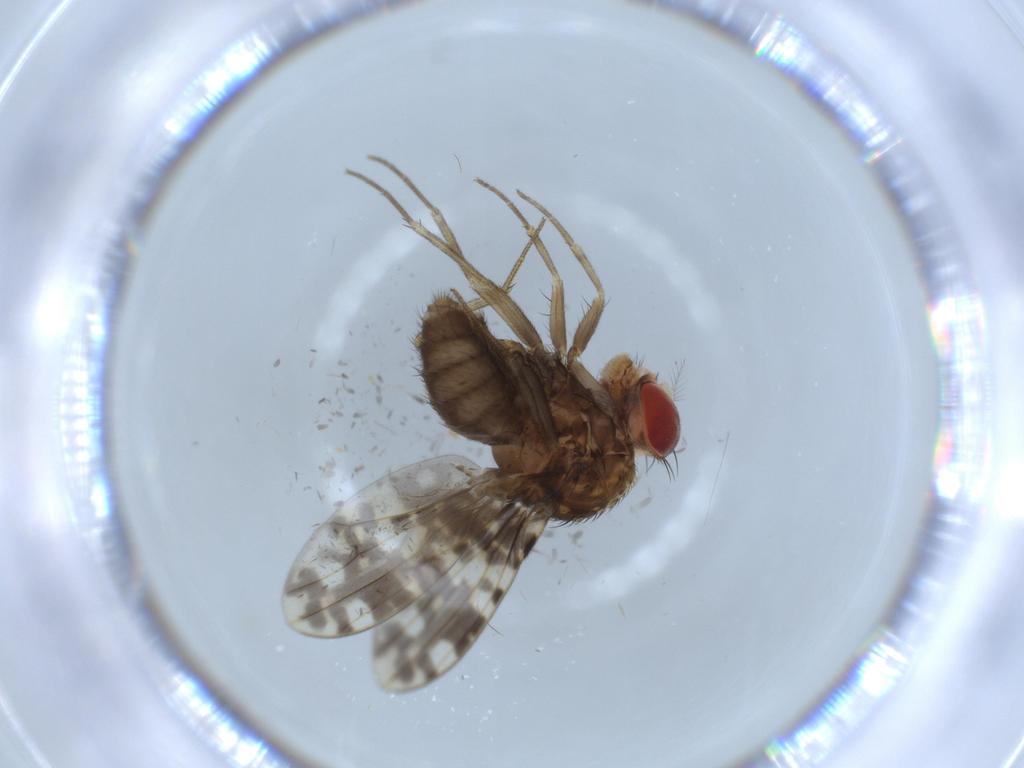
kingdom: Animalia
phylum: Arthropoda
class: Insecta
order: Diptera
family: Drosophilidae
